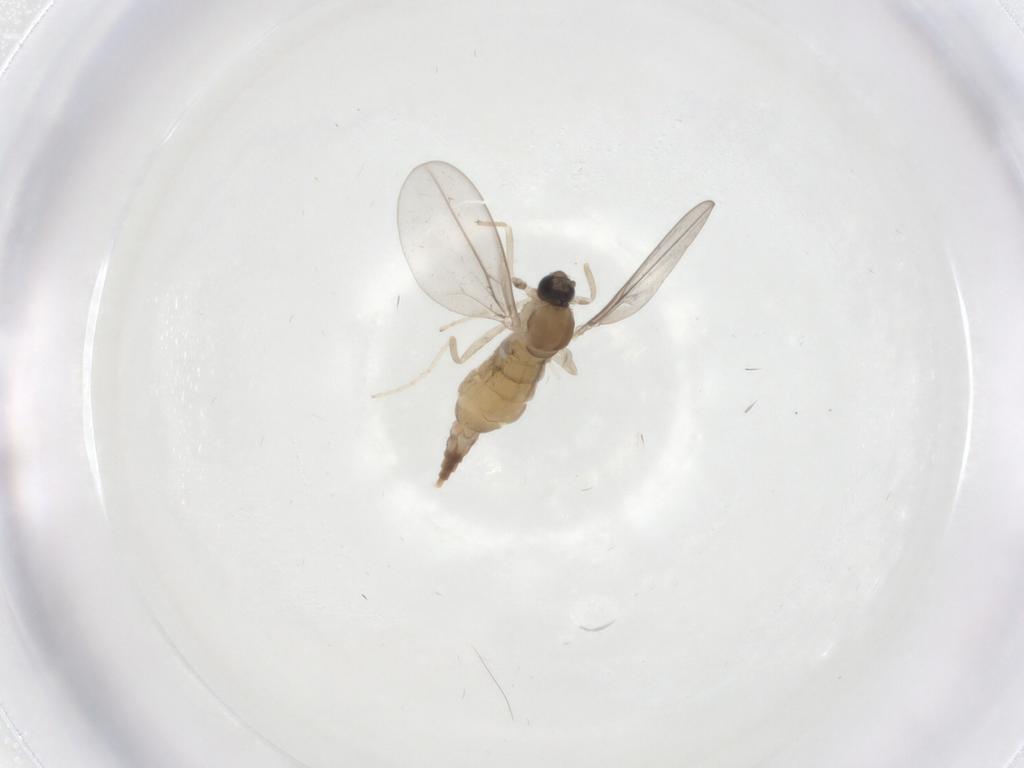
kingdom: Animalia
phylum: Arthropoda
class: Insecta
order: Diptera
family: Cecidomyiidae
